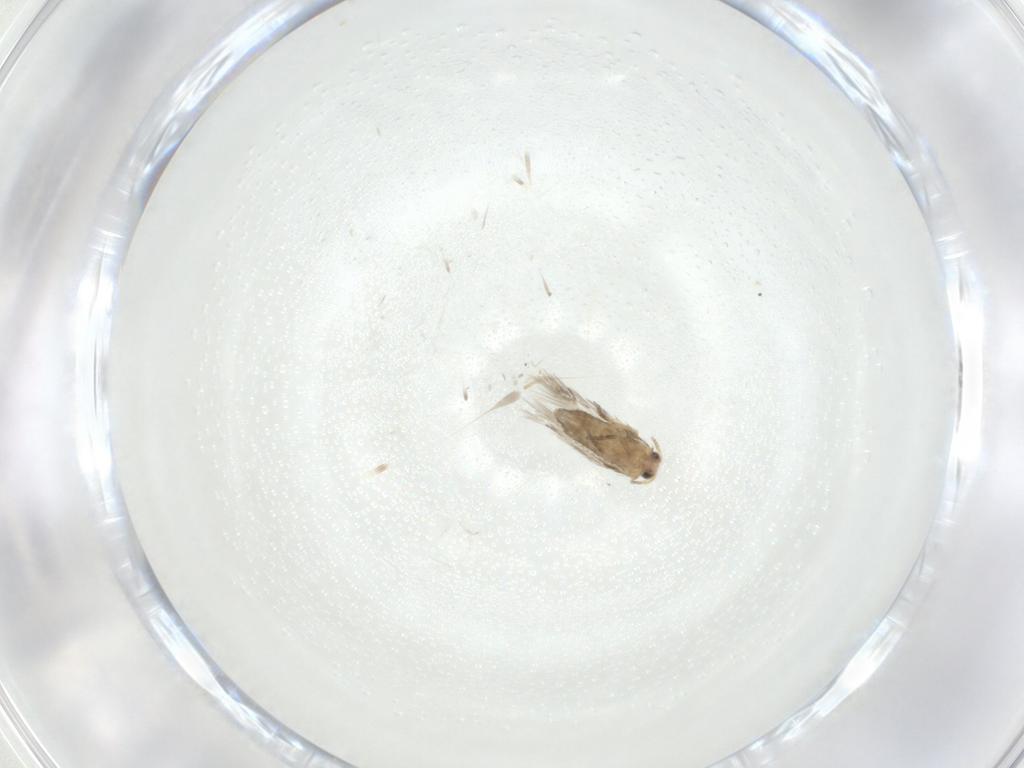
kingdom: Animalia
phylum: Arthropoda
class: Insecta
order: Lepidoptera
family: Nepticulidae
